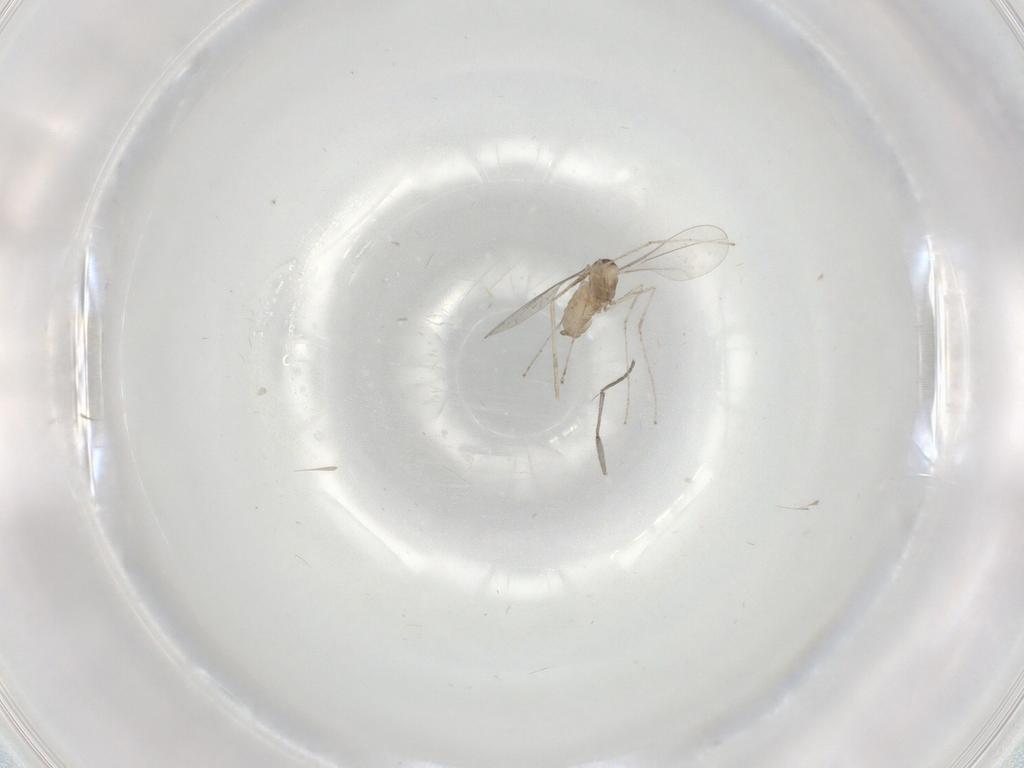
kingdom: Animalia
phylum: Arthropoda
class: Insecta
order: Diptera
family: Cecidomyiidae
